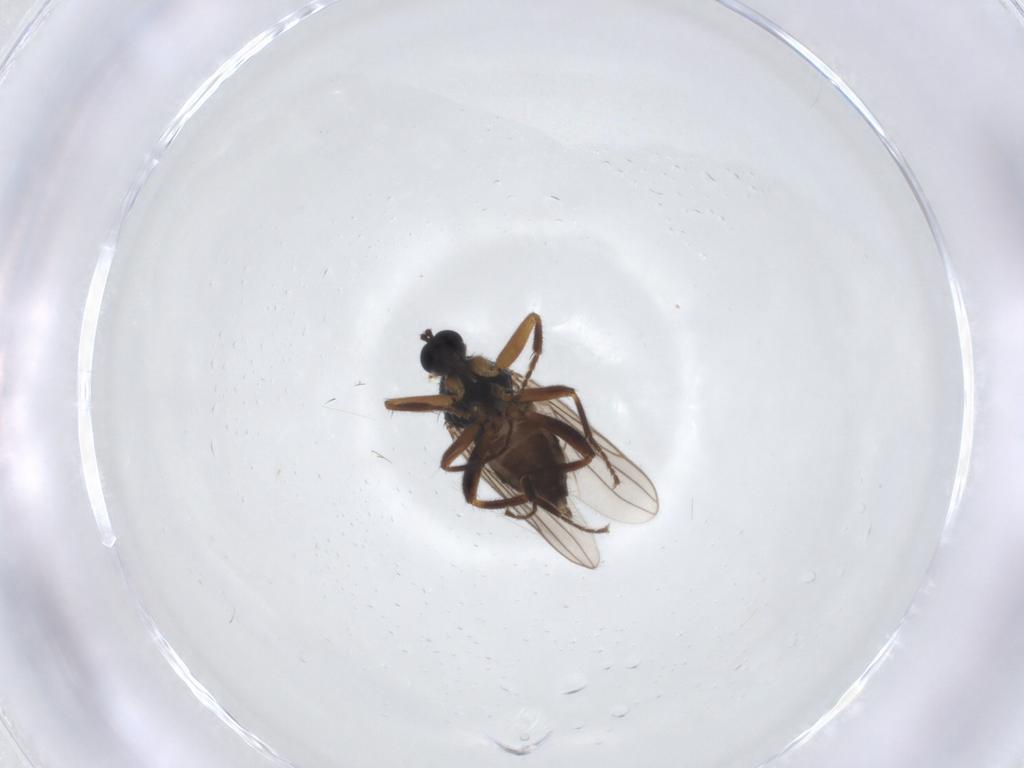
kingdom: Animalia
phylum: Arthropoda
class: Insecta
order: Diptera
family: Hybotidae
